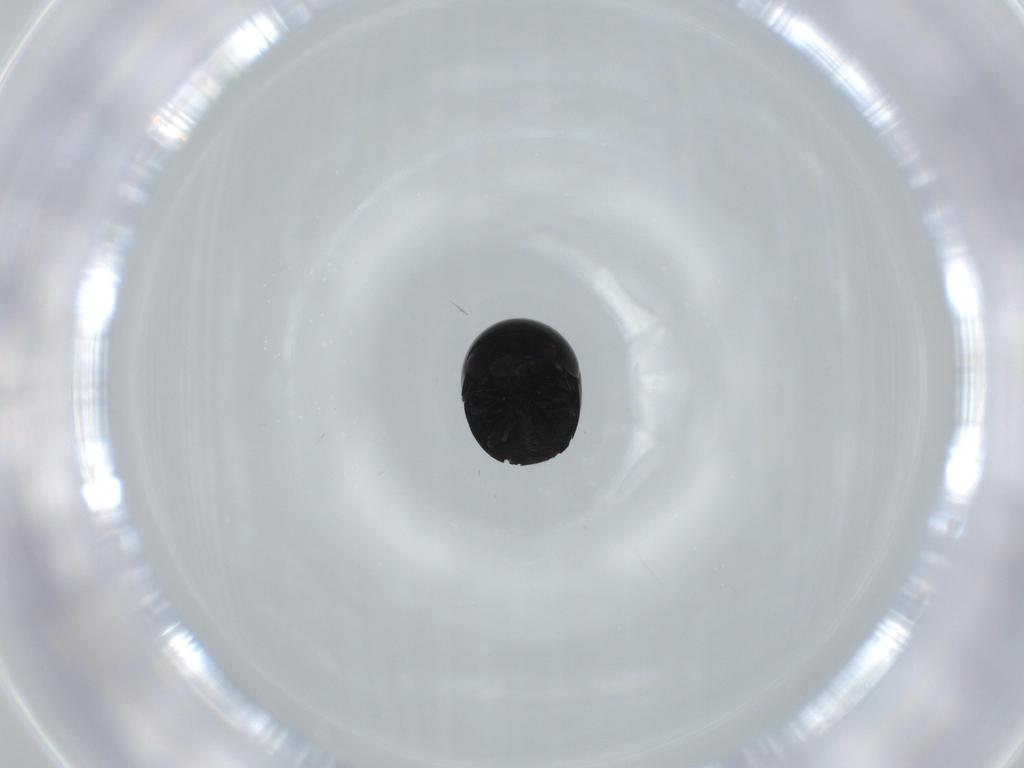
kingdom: Animalia
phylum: Arthropoda
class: Insecta
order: Coleoptera
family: Cybocephalidae
